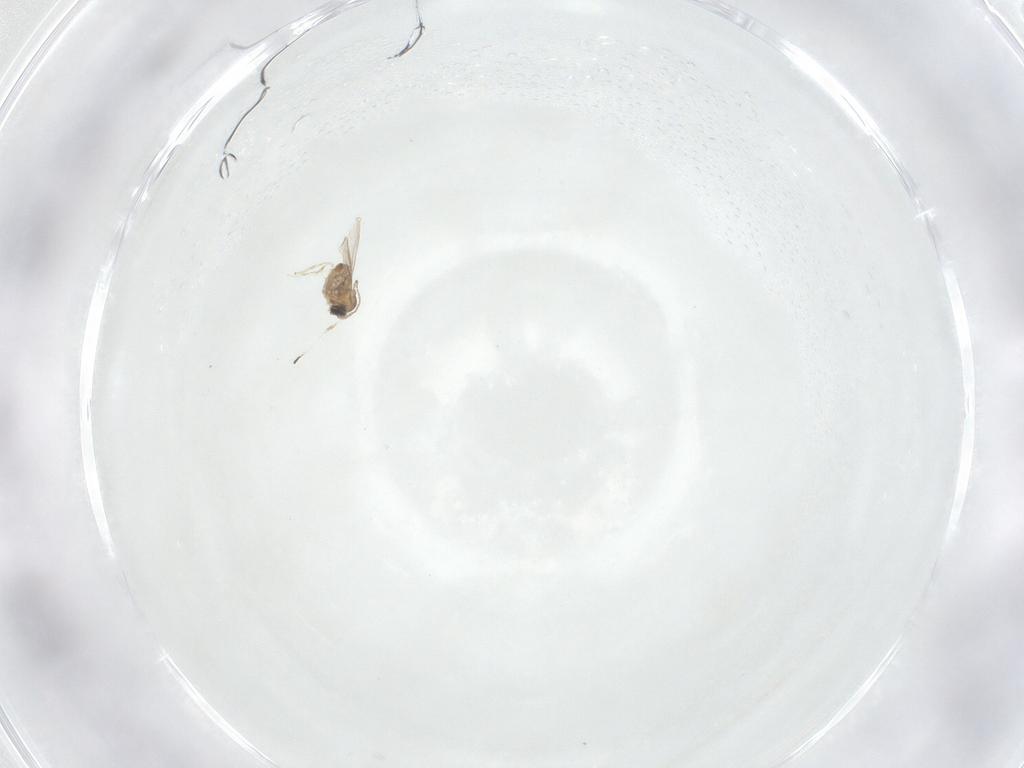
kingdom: Animalia
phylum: Arthropoda
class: Insecta
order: Diptera
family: Cecidomyiidae
